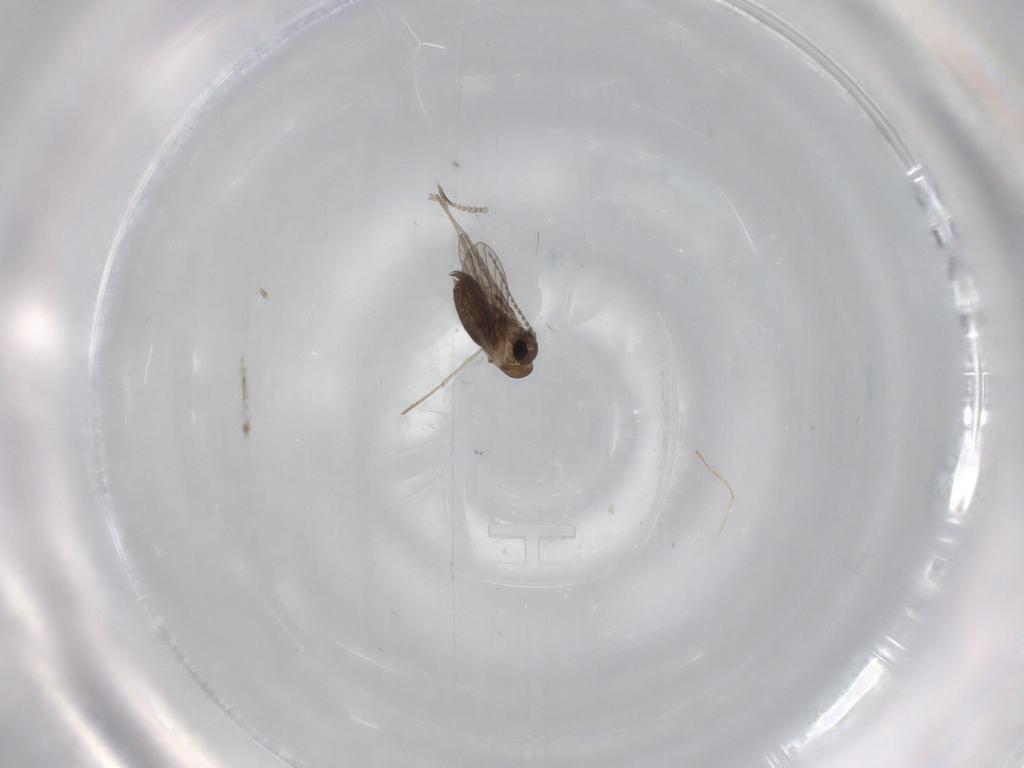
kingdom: Animalia
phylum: Arthropoda
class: Insecta
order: Diptera
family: Cecidomyiidae
